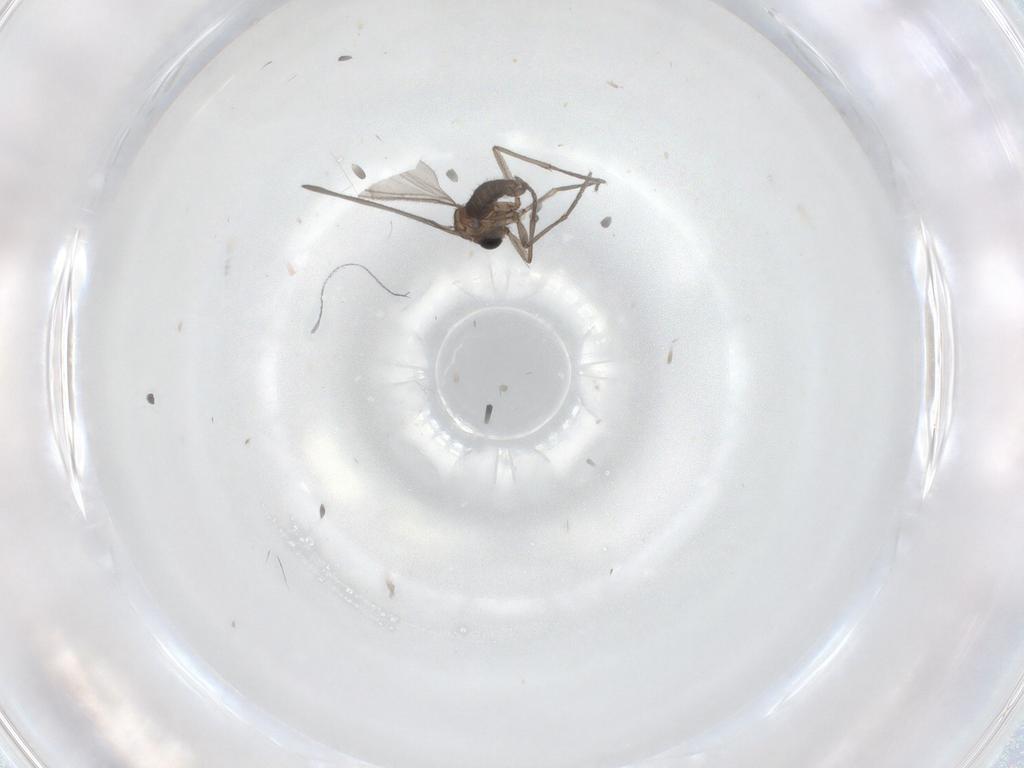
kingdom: Animalia
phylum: Arthropoda
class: Insecta
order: Diptera
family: Sciaridae
